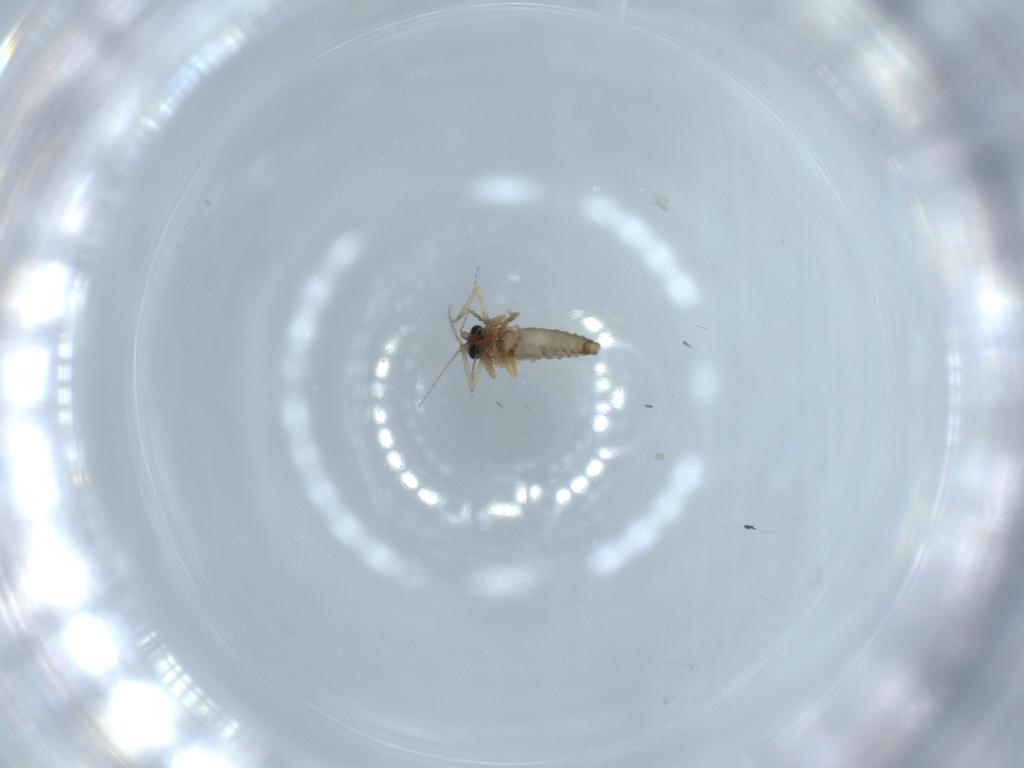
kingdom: Animalia
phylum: Arthropoda
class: Insecta
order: Diptera
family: Ceratopogonidae
